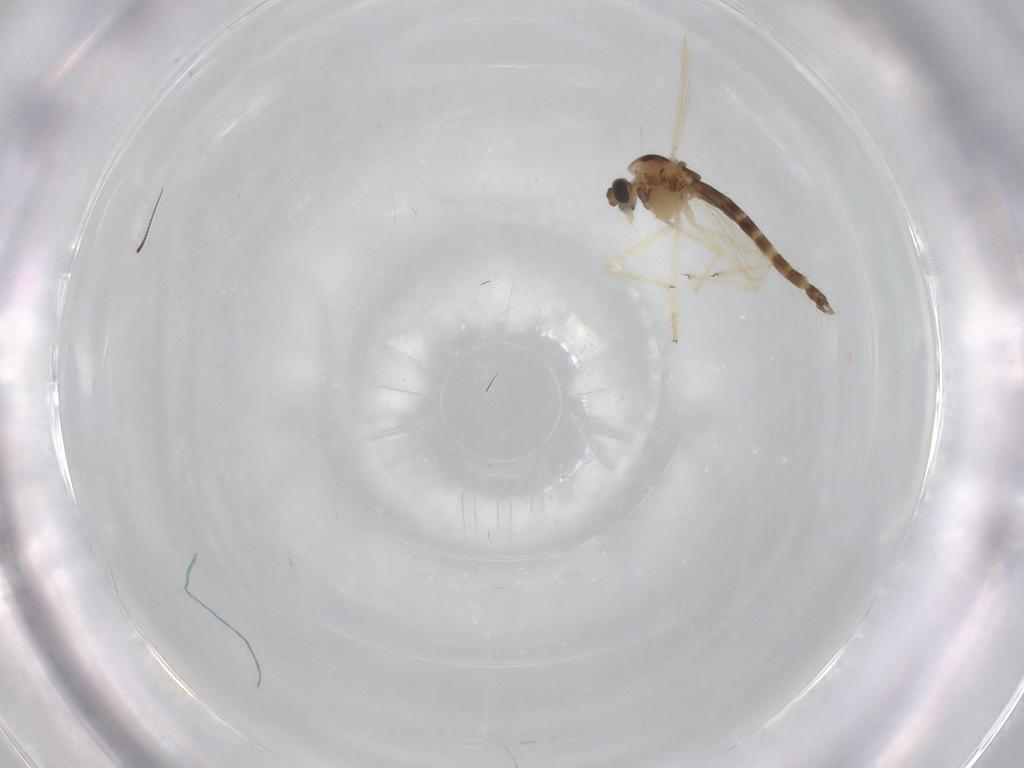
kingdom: Animalia
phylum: Arthropoda
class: Insecta
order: Diptera
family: Chironomidae
